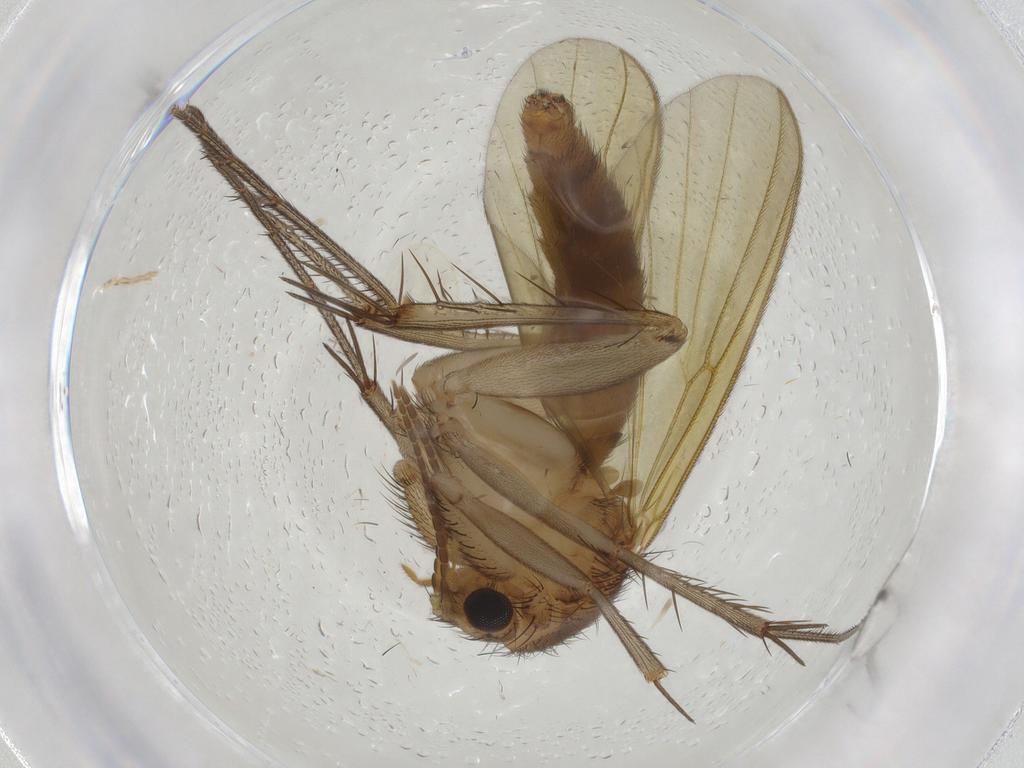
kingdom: Animalia
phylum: Arthropoda
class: Insecta
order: Diptera
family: Mycetophilidae
